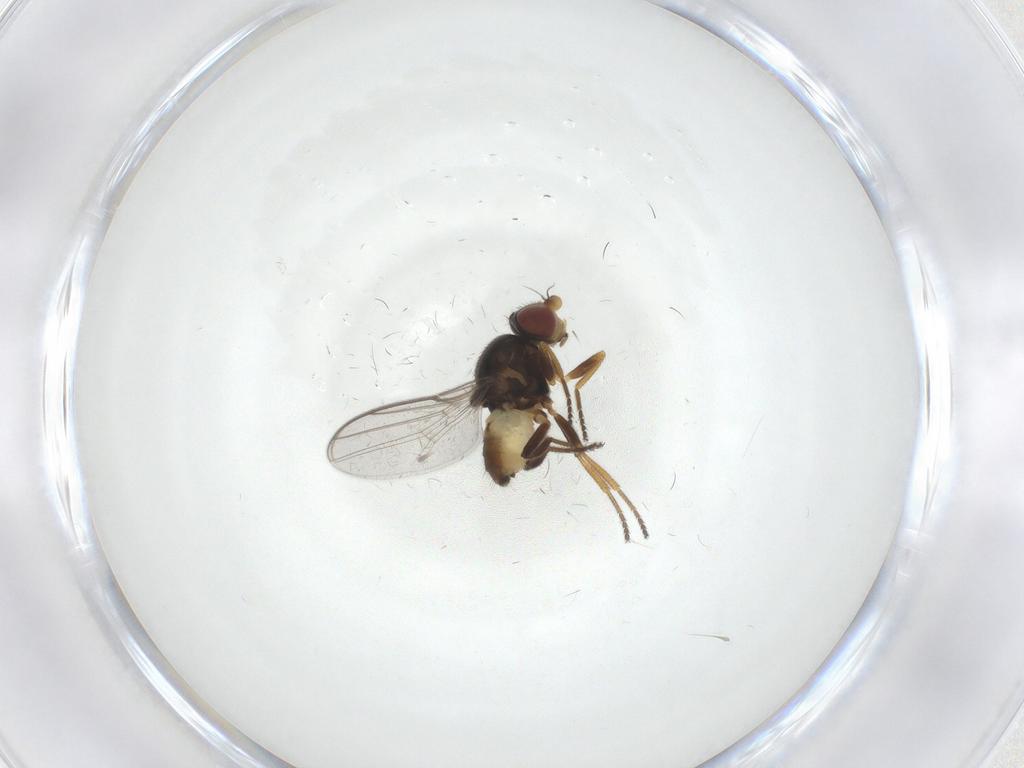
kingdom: Animalia
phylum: Arthropoda
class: Insecta
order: Diptera
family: Chloropidae
